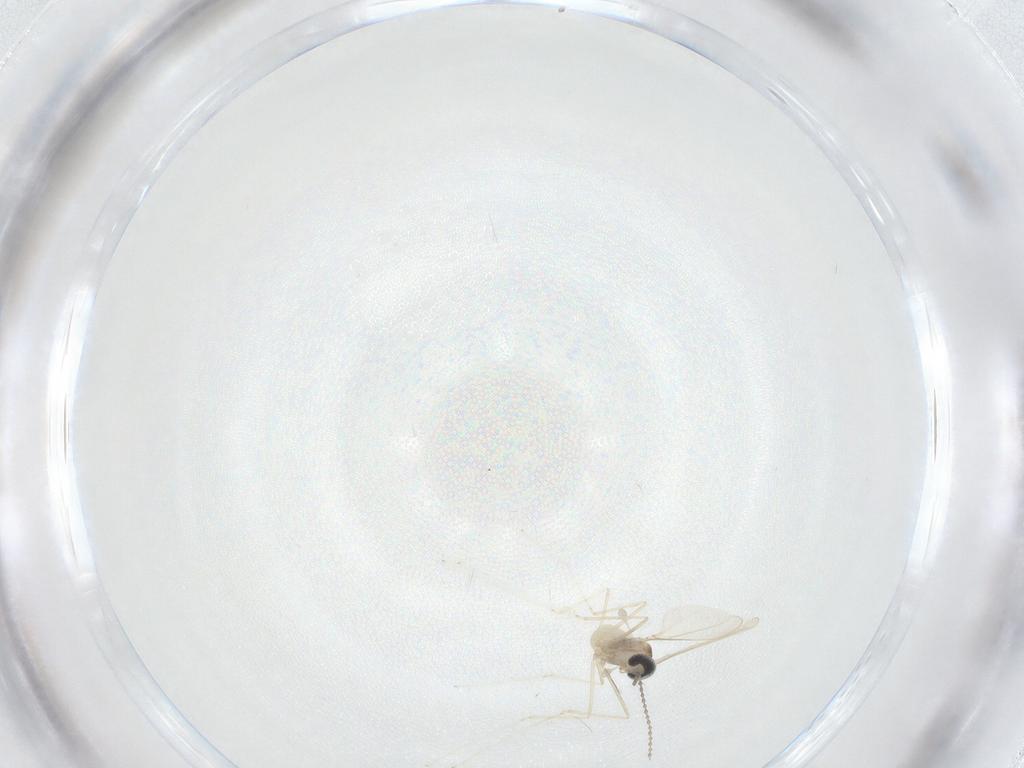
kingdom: Animalia
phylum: Arthropoda
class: Insecta
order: Diptera
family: Cecidomyiidae
